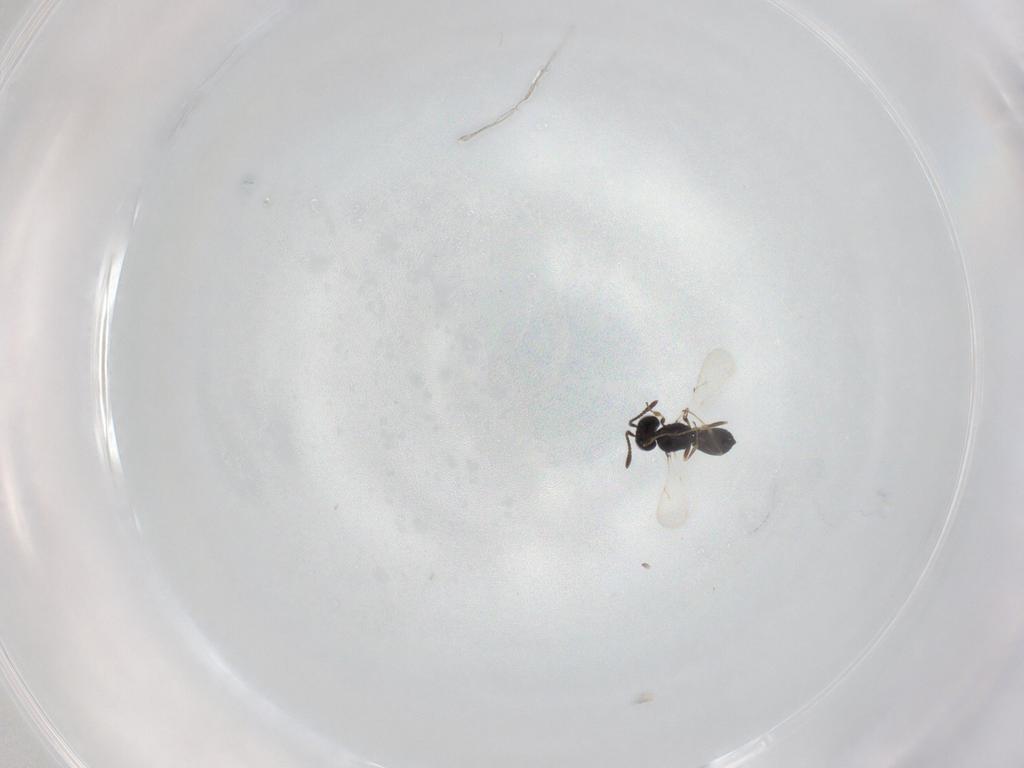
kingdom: Animalia
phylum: Arthropoda
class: Insecta
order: Hymenoptera
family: Scelionidae
